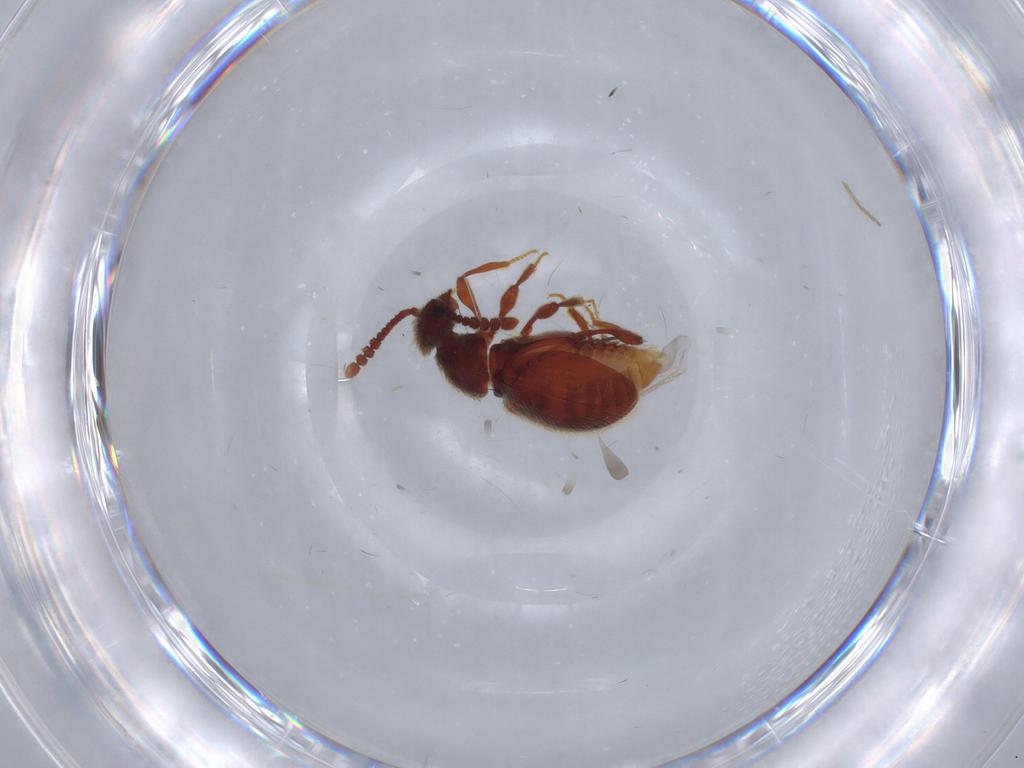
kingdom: Animalia
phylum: Arthropoda
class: Insecta
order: Coleoptera
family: Staphylinidae
